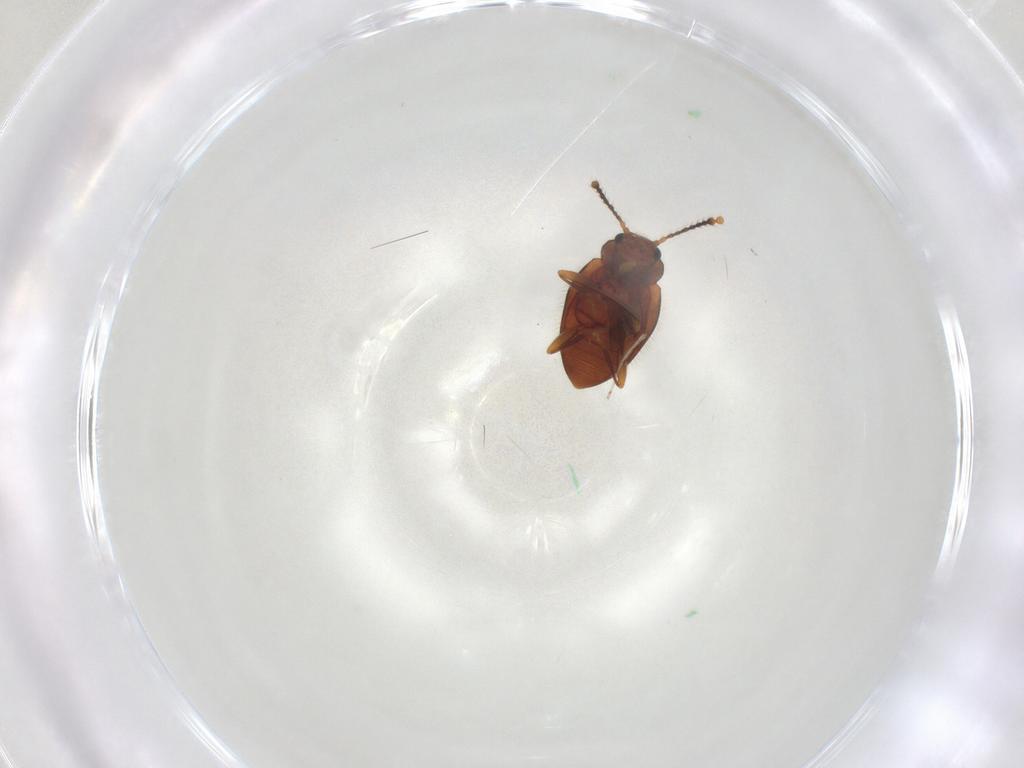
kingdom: Animalia
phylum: Arthropoda
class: Insecta
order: Coleoptera
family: Erotylidae
